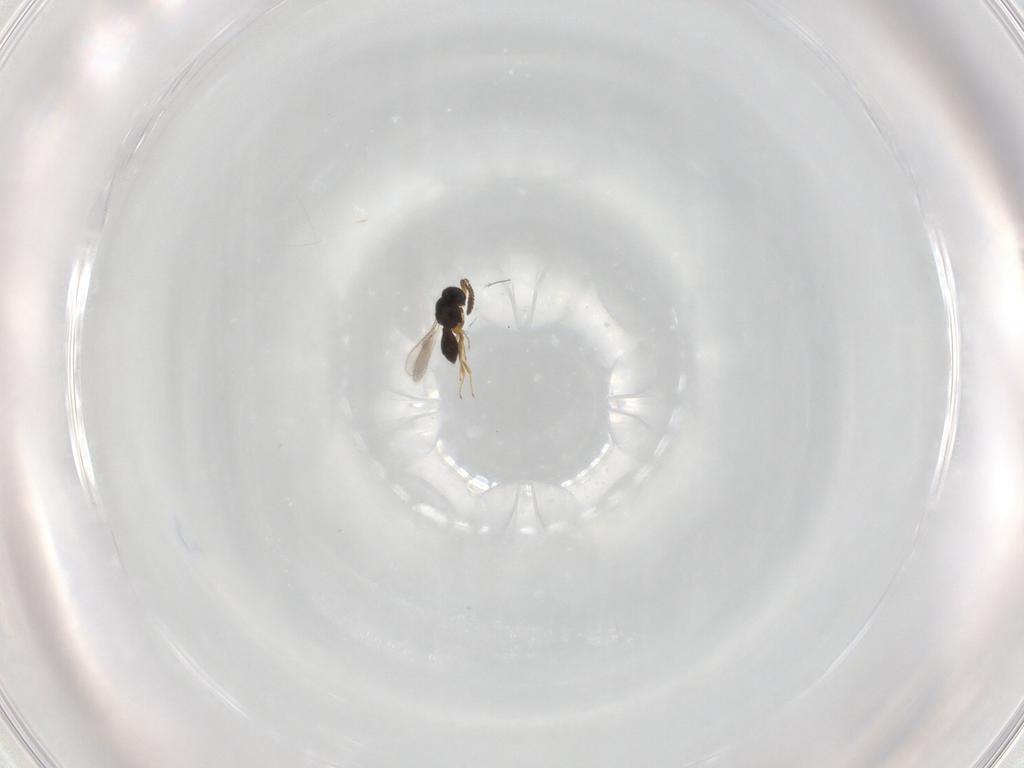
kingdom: Animalia
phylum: Arthropoda
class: Insecta
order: Hymenoptera
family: Scelionidae
